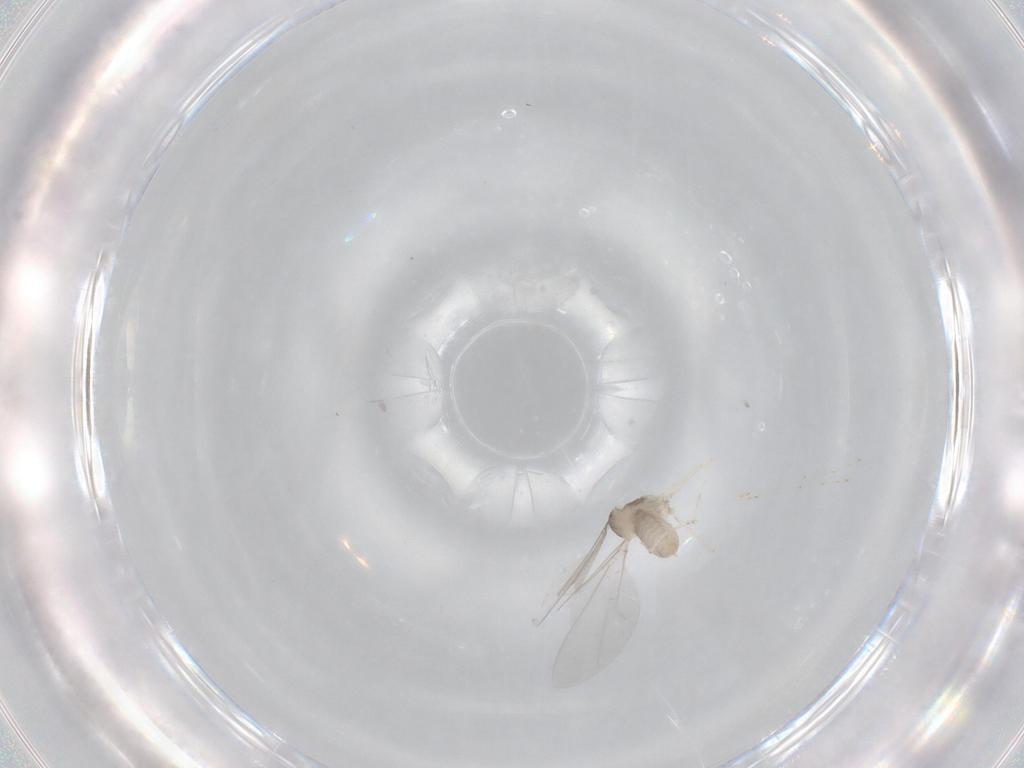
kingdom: Animalia
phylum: Arthropoda
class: Insecta
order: Diptera
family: Cecidomyiidae
